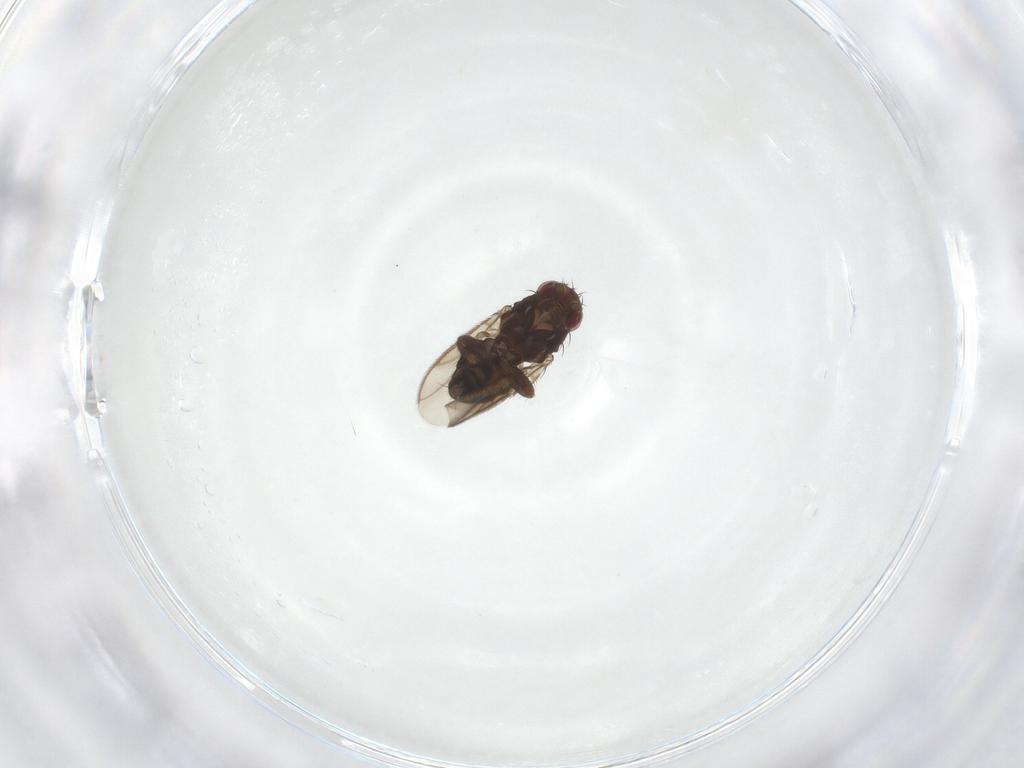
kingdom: Animalia
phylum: Arthropoda
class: Insecta
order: Diptera
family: Sphaeroceridae
